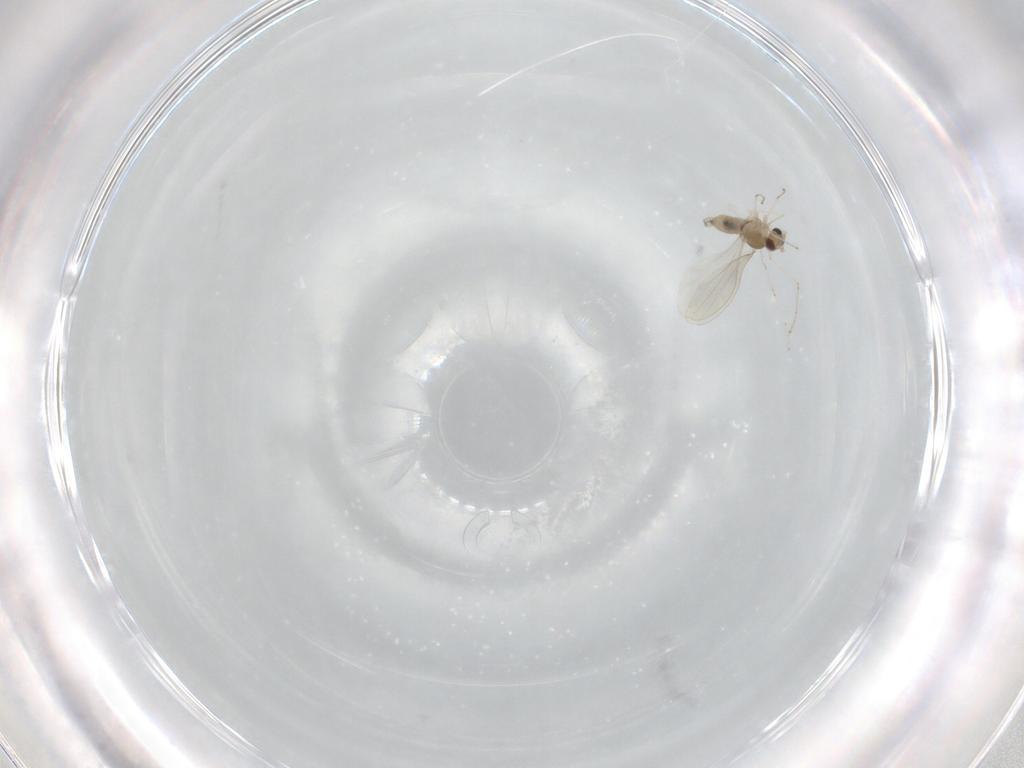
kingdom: Animalia
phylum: Arthropoda
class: Insecta
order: Diptera
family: Cecidomyiidae
